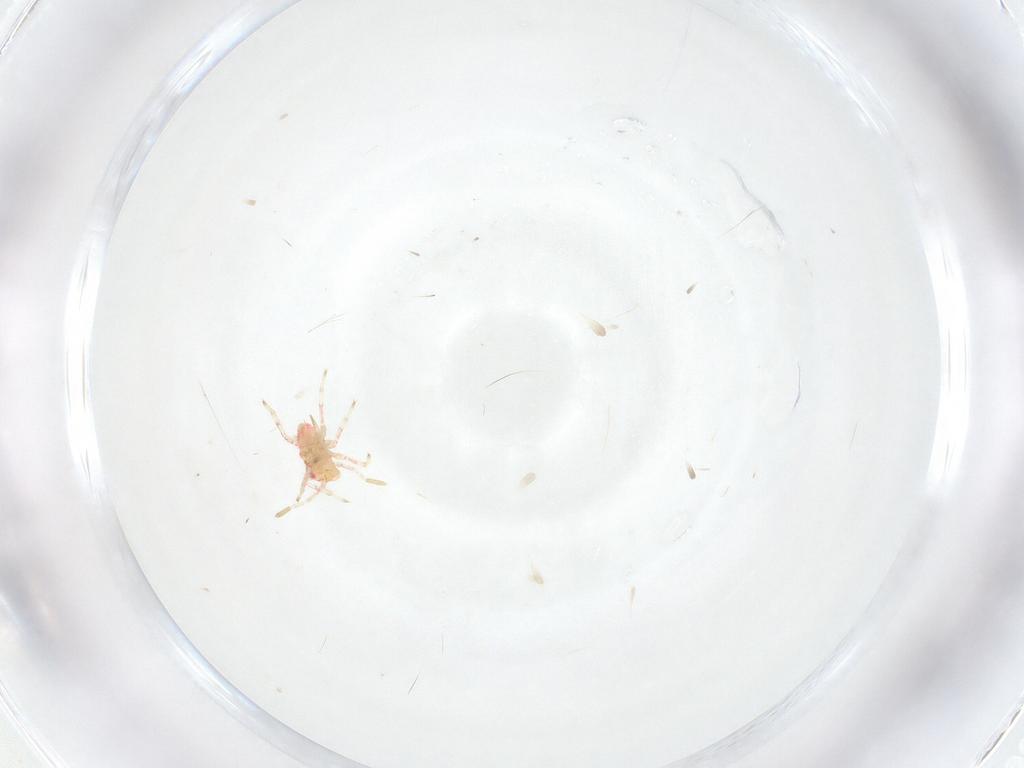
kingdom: Animalia
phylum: Arthropoda
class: Insecta
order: Hemiptera
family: Miridae
